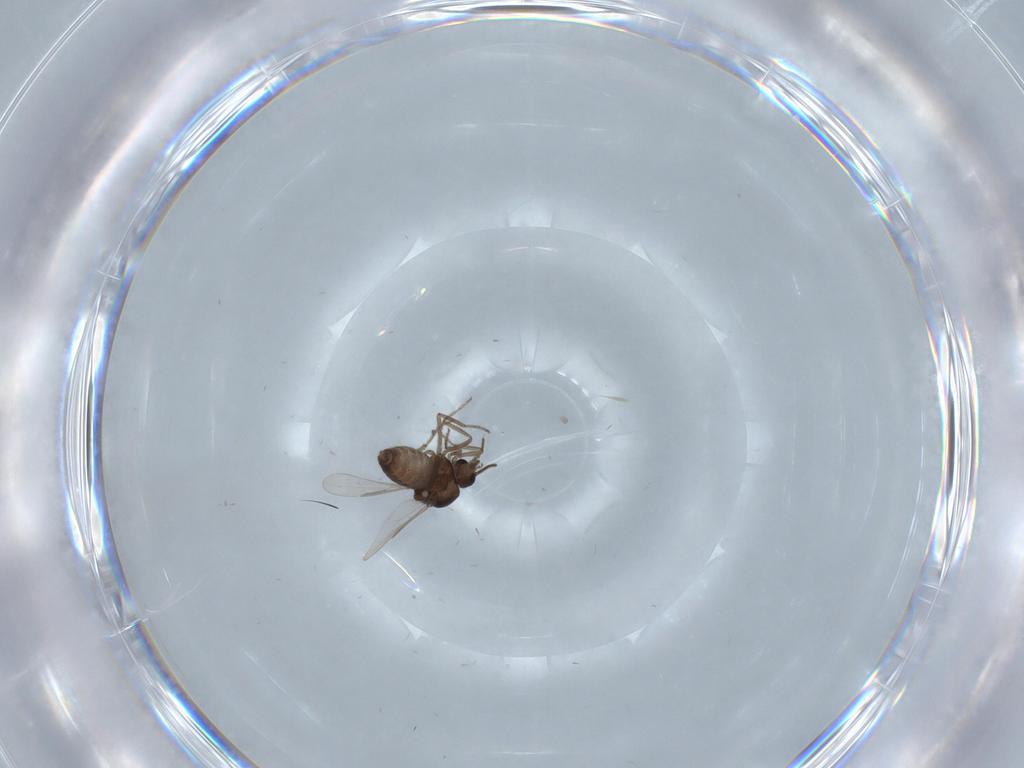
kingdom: Animalia
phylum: Arthropoda
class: Insecta
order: Diptera
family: Ceratopogonidae
